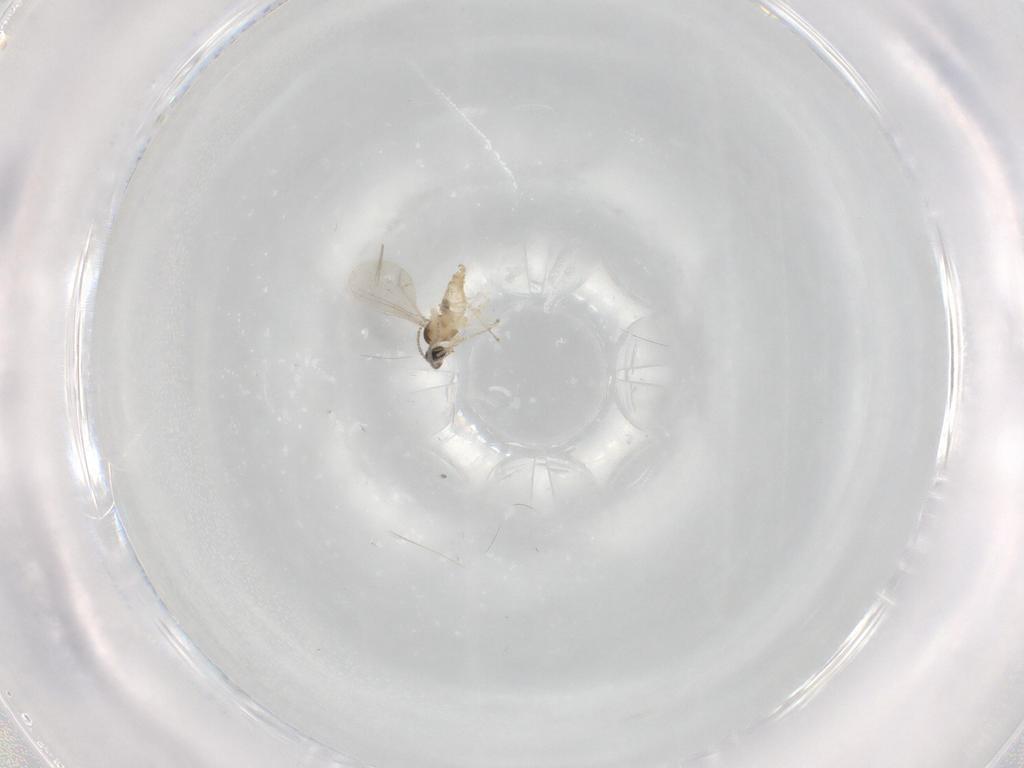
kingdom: Animalia
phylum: Arthropoda
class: Insecta
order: Diptera
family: Cecidomyiidae
